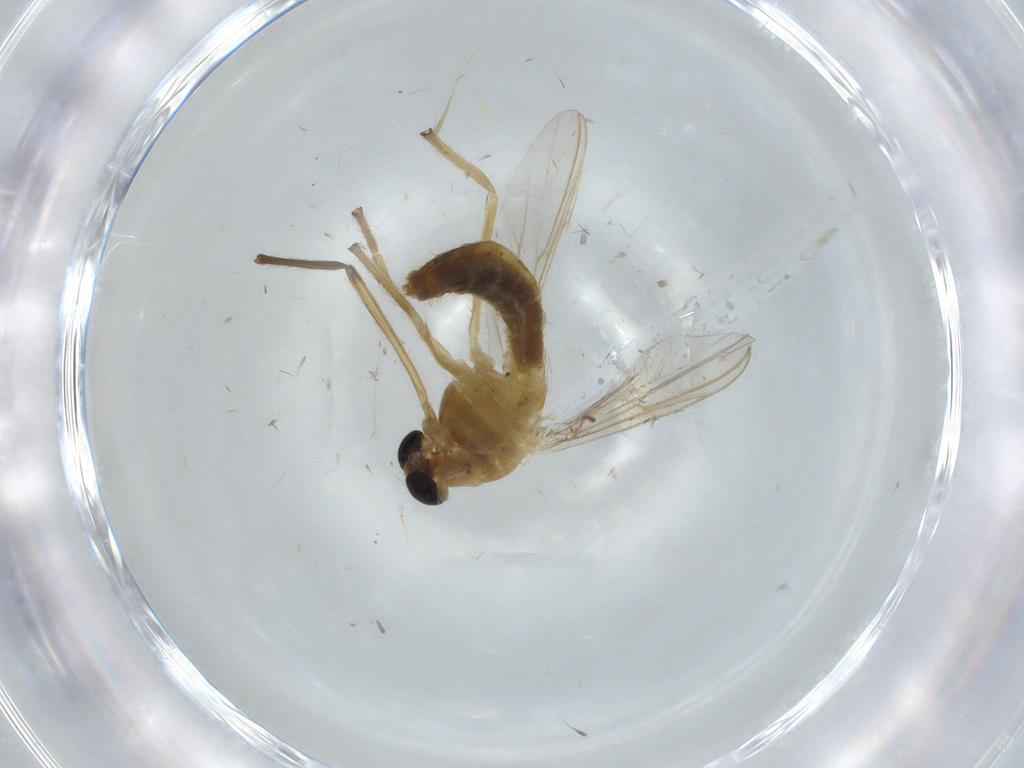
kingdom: Animalia
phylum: Arthropoda
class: Insecta
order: Diptera
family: Chironomidae
